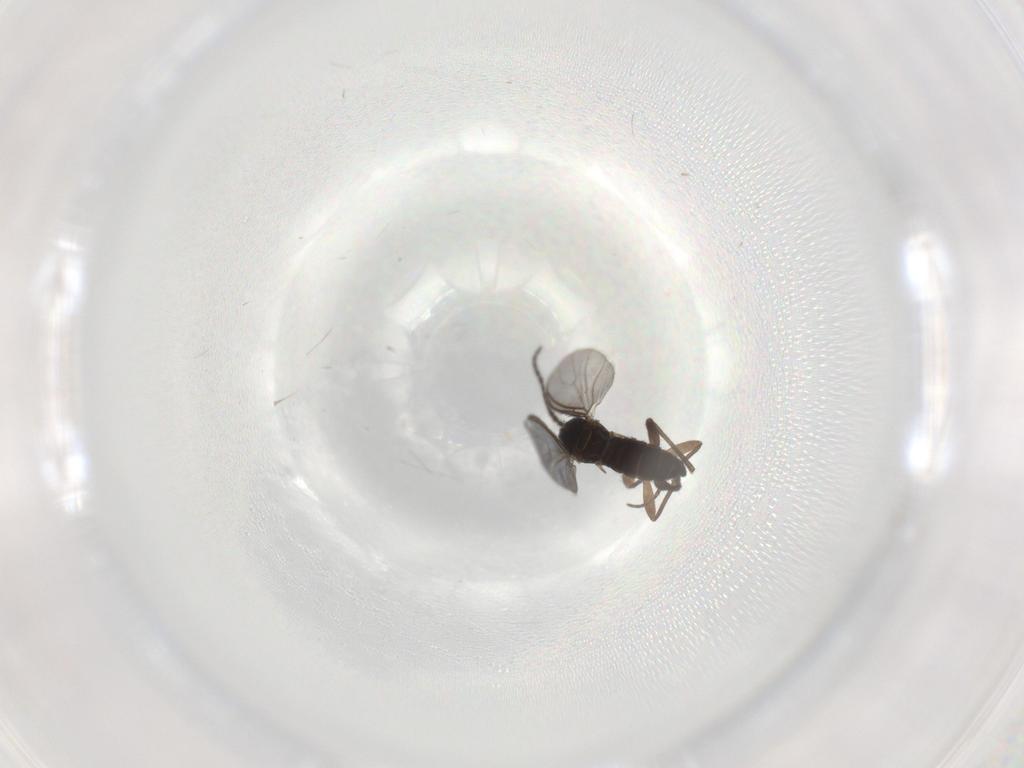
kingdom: Animalia
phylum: Arthropoda
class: Insecta
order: Diptera
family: Sciaridae
